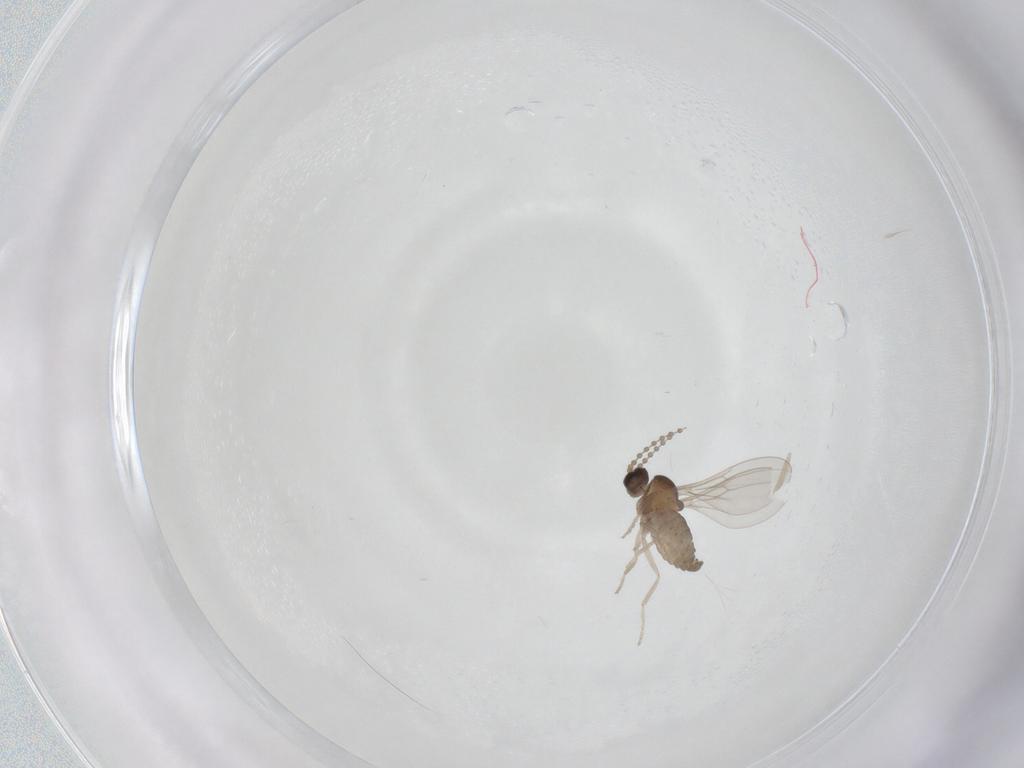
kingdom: Animalia
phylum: Arthropoda
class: Insecta
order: Diptera
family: Cecidomyiidae
